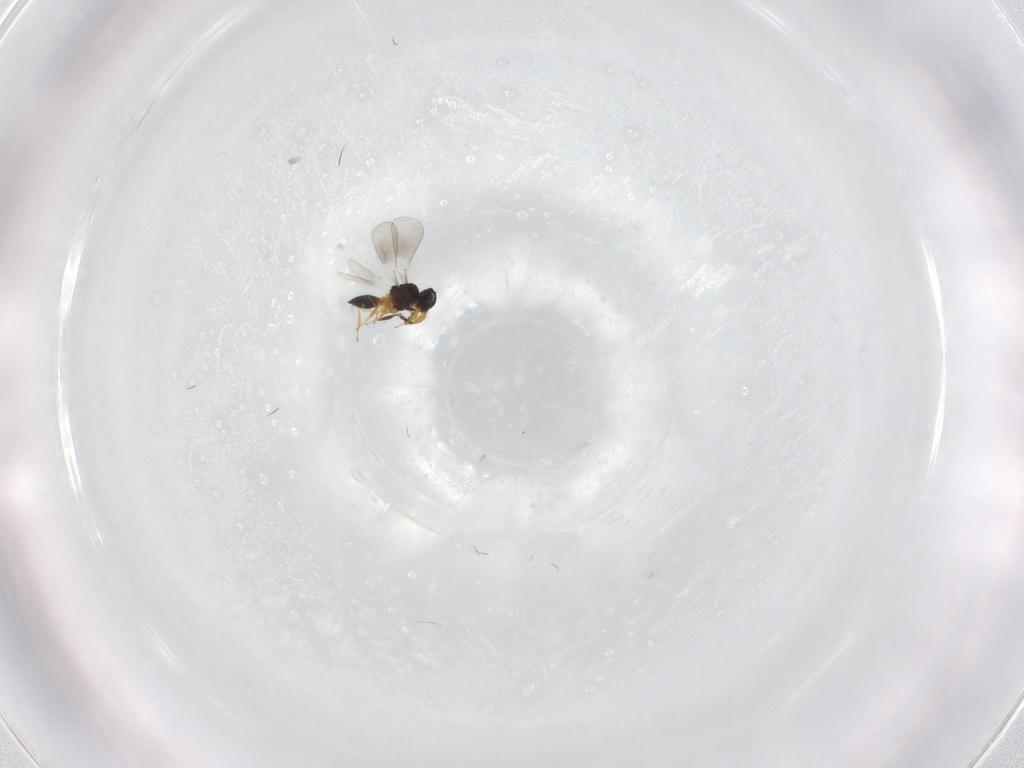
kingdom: Animalia
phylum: Arthropoda
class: Insecta
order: Hymenoptera
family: Platygastridae
